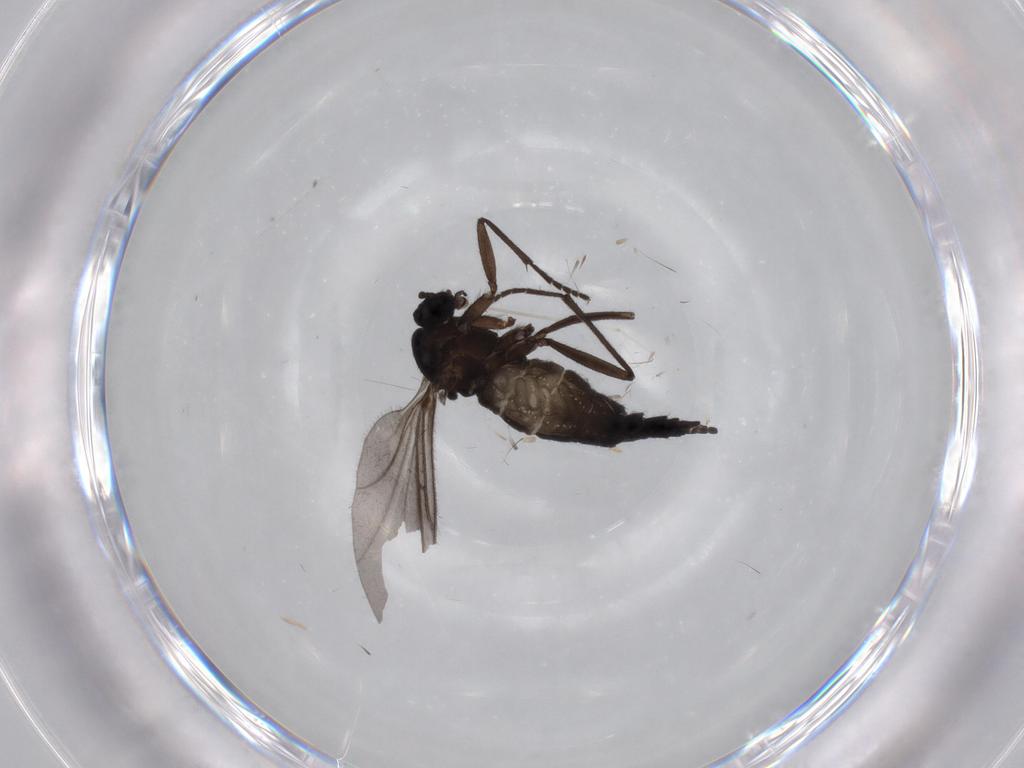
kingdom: Animalia
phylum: Arthropoda
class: Insecta
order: Diptera
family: Sciaridae
